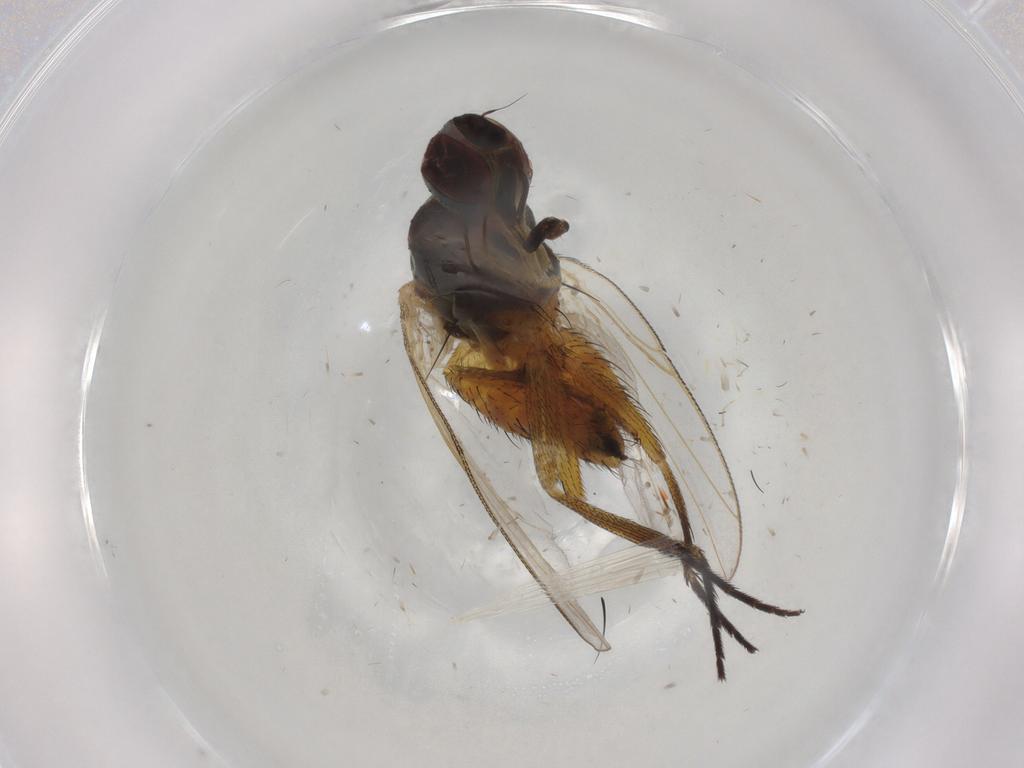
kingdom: Animalia
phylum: Arthropoda
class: Insecta
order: Diptera
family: Muscidae
